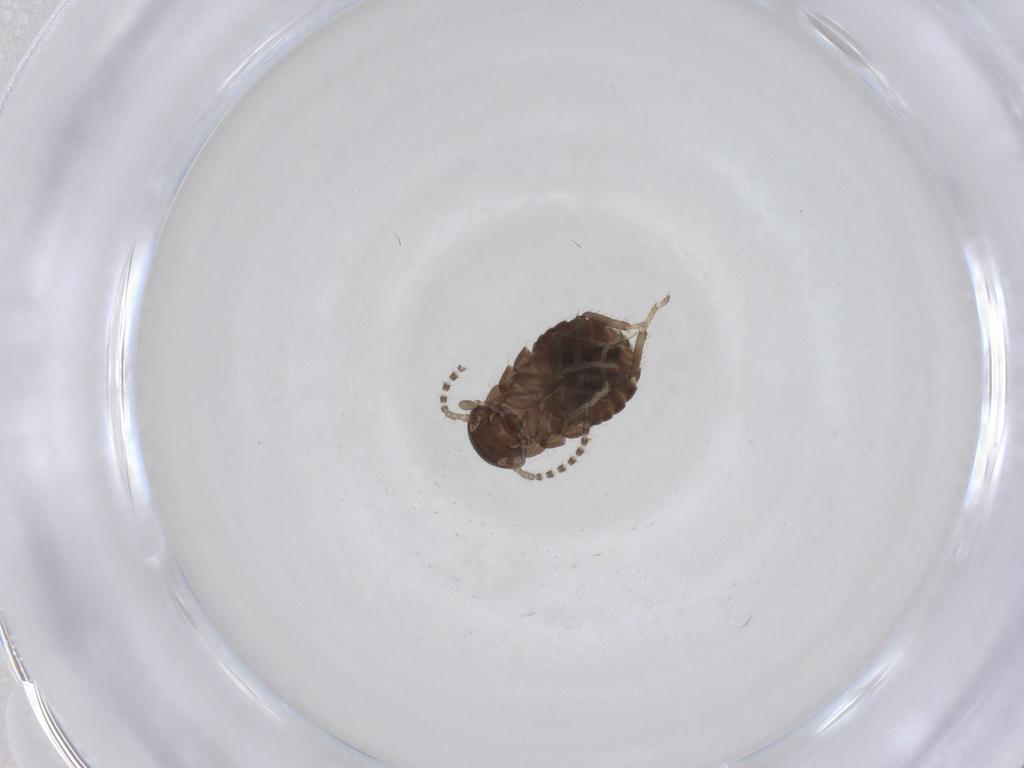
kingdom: Animalia
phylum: Arthropoda
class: Insecta
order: Blattodea
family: Ectobiidae
